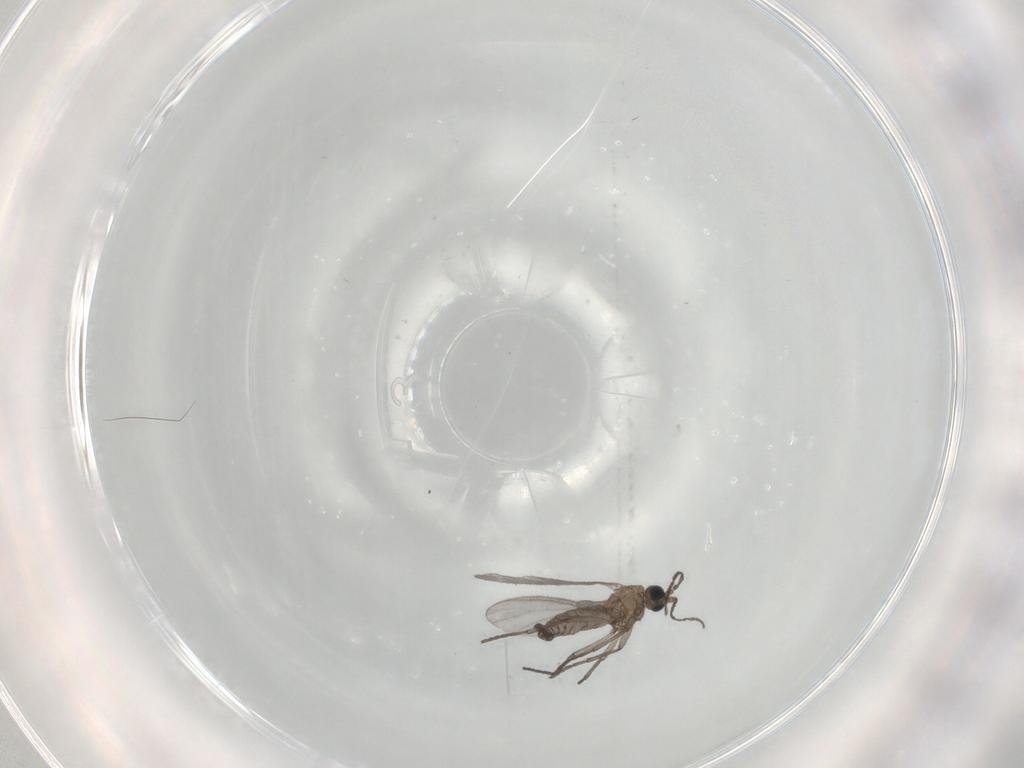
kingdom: Animalia
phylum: Arthropoda
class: Insecta
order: Diptera
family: Sciaridae
